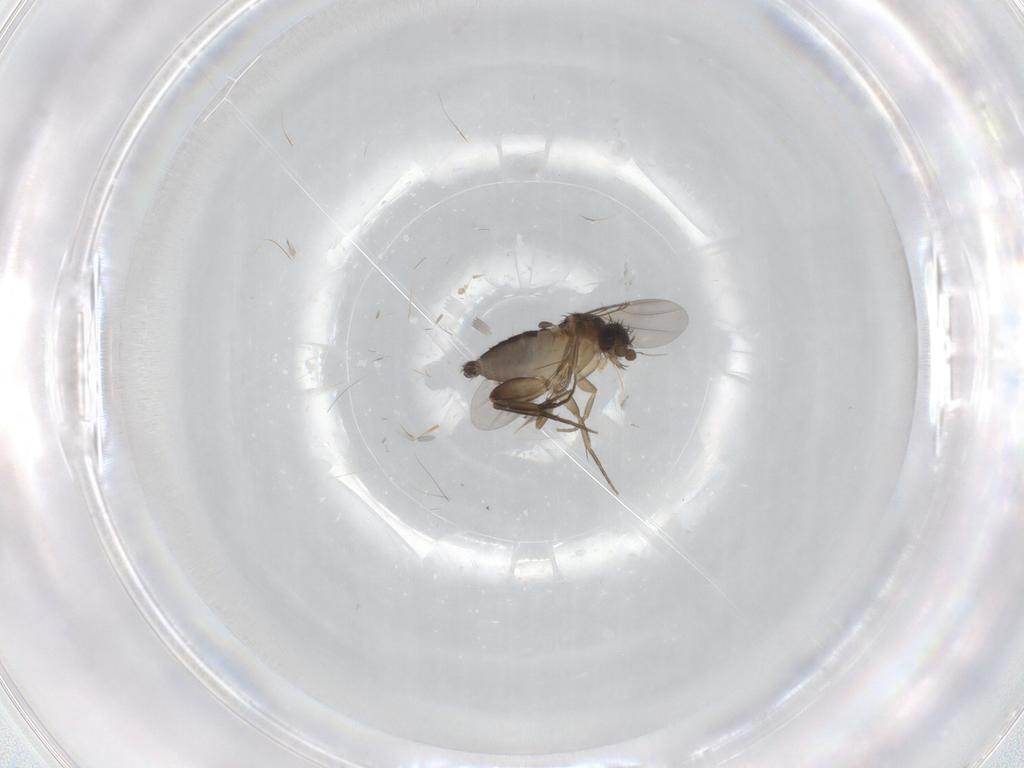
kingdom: Animalia
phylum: Arthropoda
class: Insecta
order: Diptera
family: Phoridae
